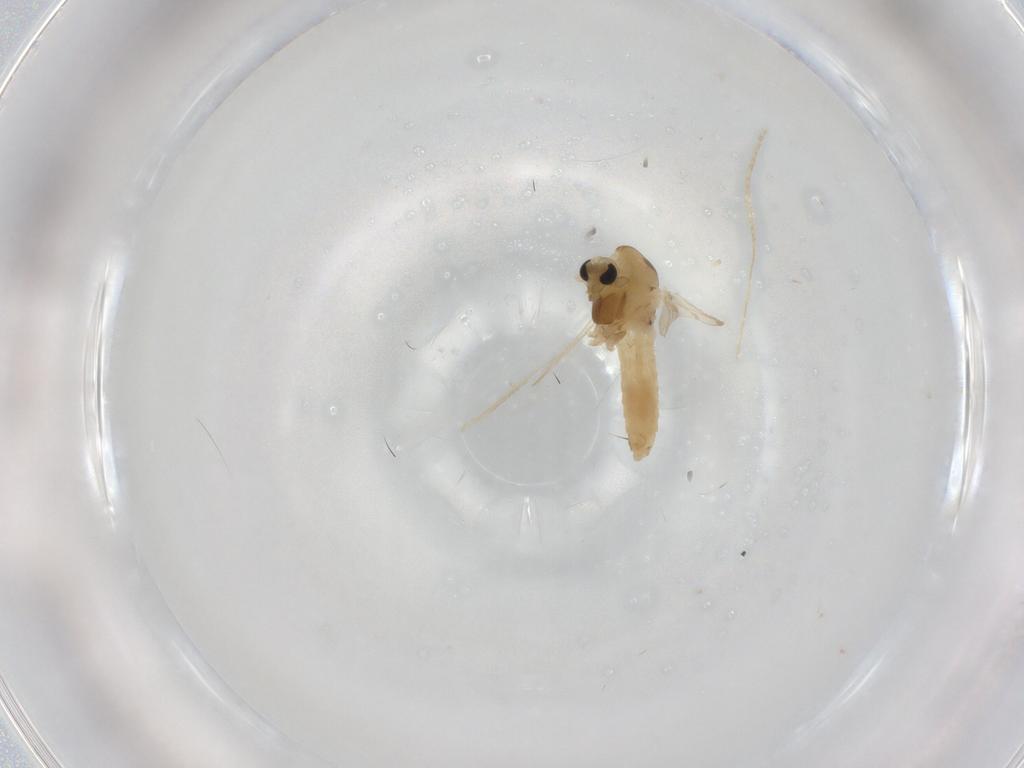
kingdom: Animalia
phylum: Arthropoda
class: Insecta
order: Diptera
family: Chironomidae
